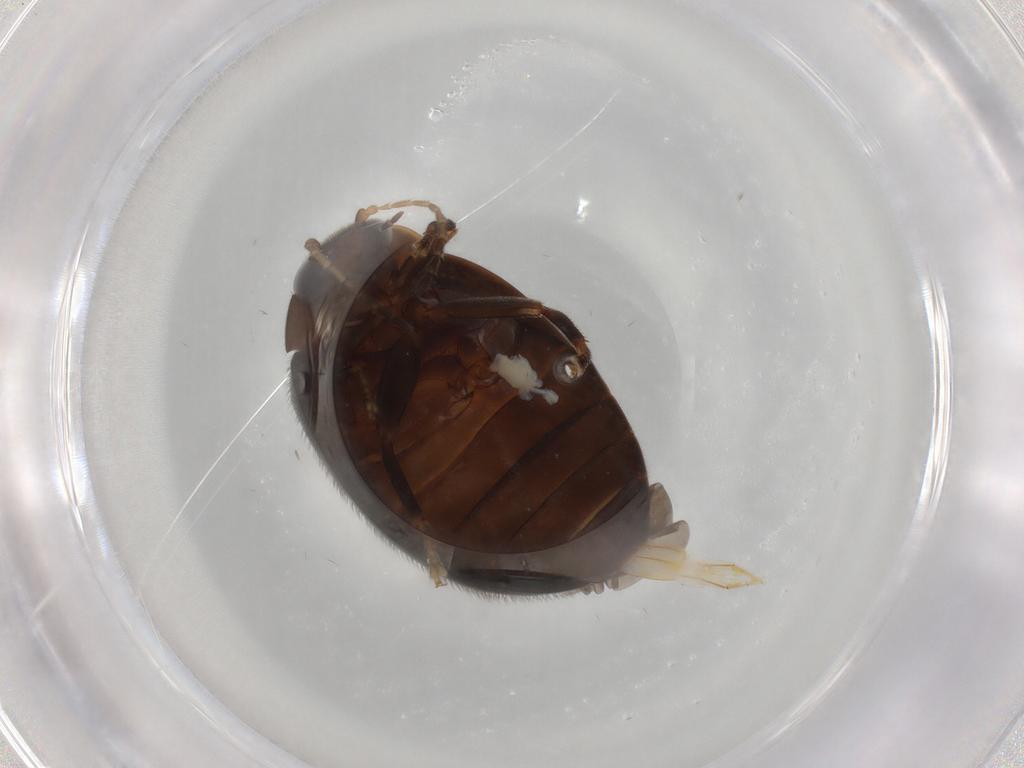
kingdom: Animalia
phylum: Arthropoda
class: Insecta
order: Coleoptera
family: Scirtidae
